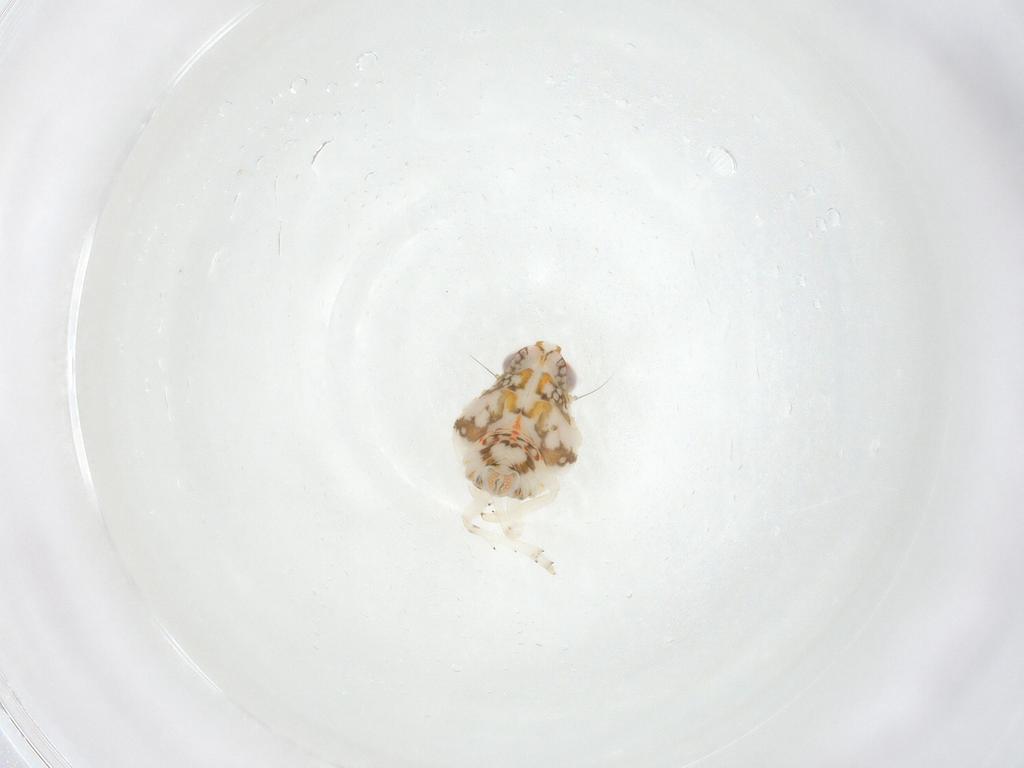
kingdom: Animalia
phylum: Arthropoda
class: Insecta
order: Hemiptera
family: Nogodinidae
